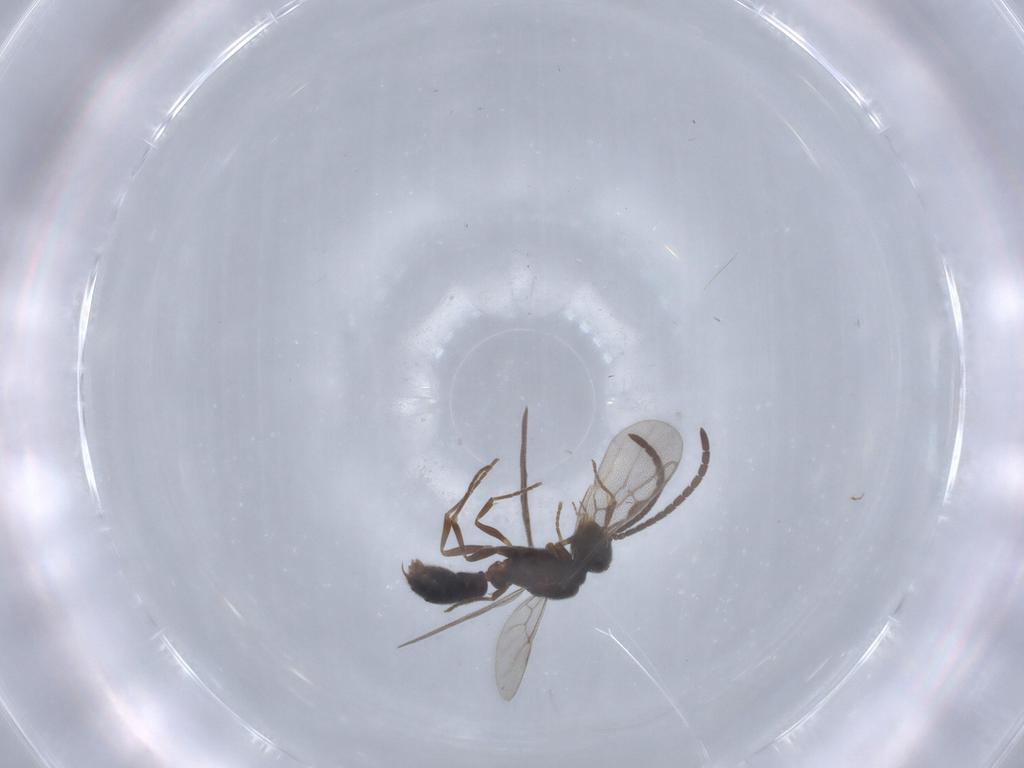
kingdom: Animalia
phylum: Arthropoda
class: Insecta
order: Hymenoptera
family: Formicidae
